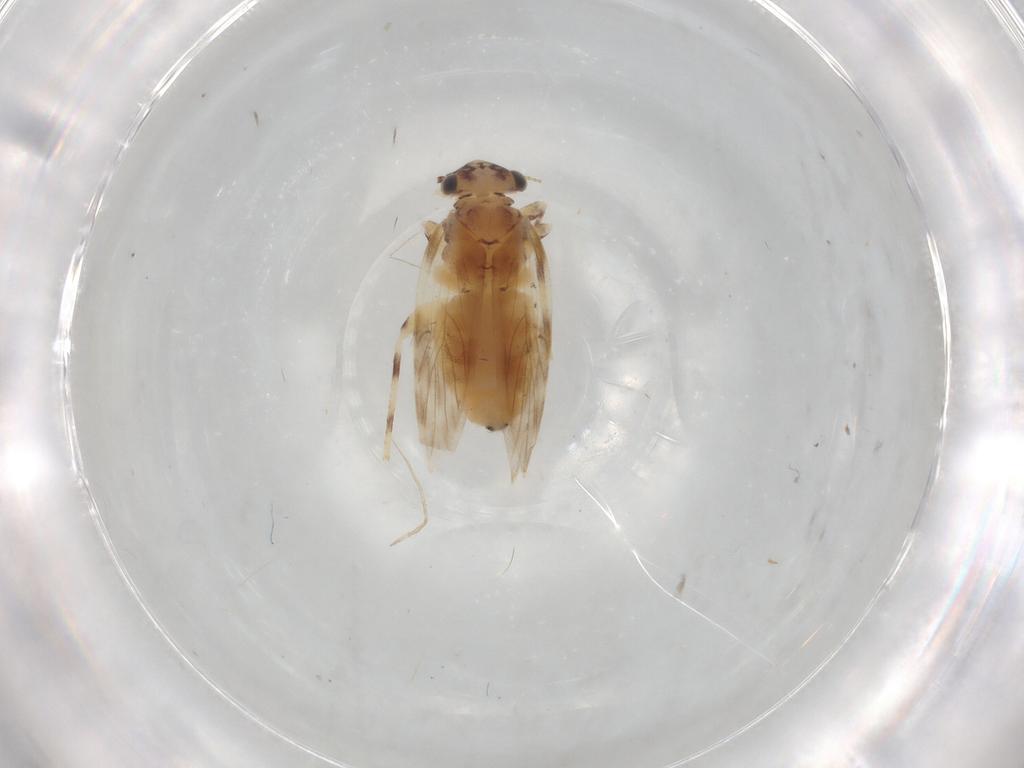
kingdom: Animalia
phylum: Arthropoda
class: Insecta
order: Psocodea
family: Lepidopsocidae
